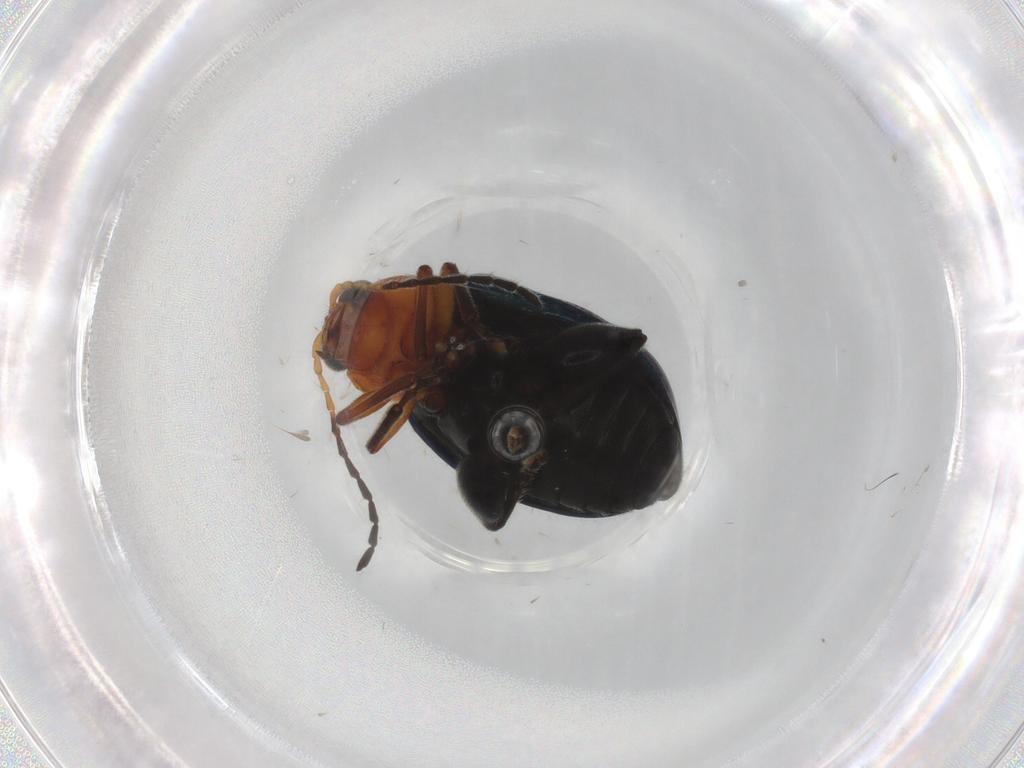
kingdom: Animalia
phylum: Arthropoda
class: Insecta
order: Coleoptera
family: Chrysomelidae
